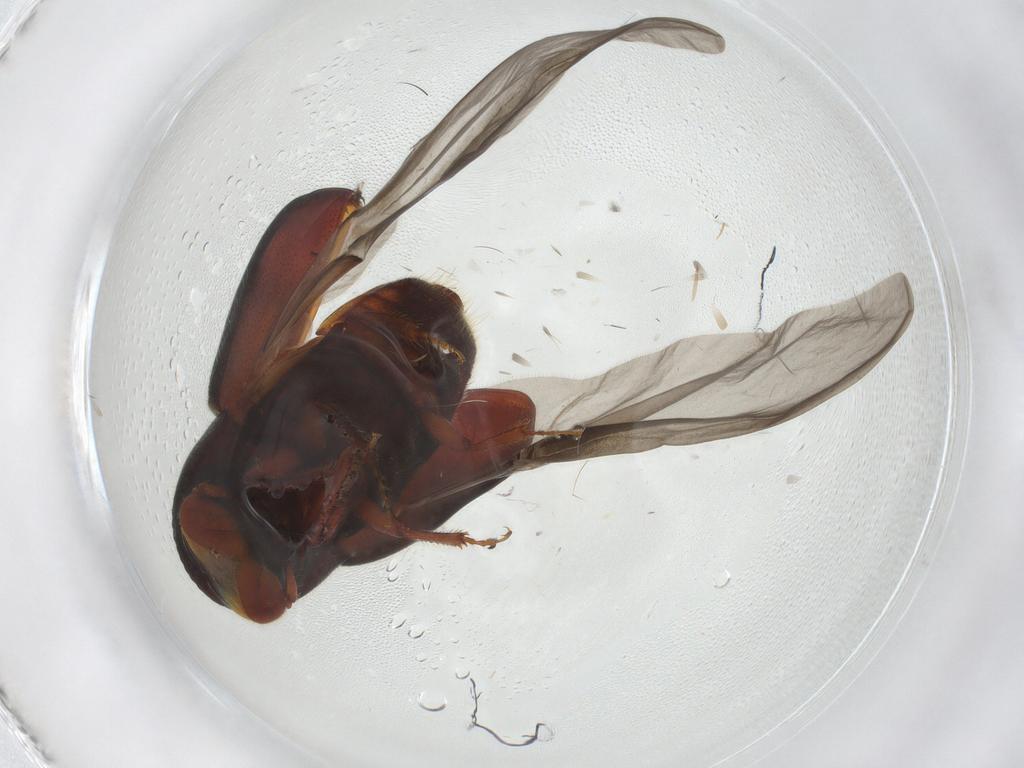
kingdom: Animalia
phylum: Arthropoda
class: Insecta
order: Coleoptera
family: Curculionidae
